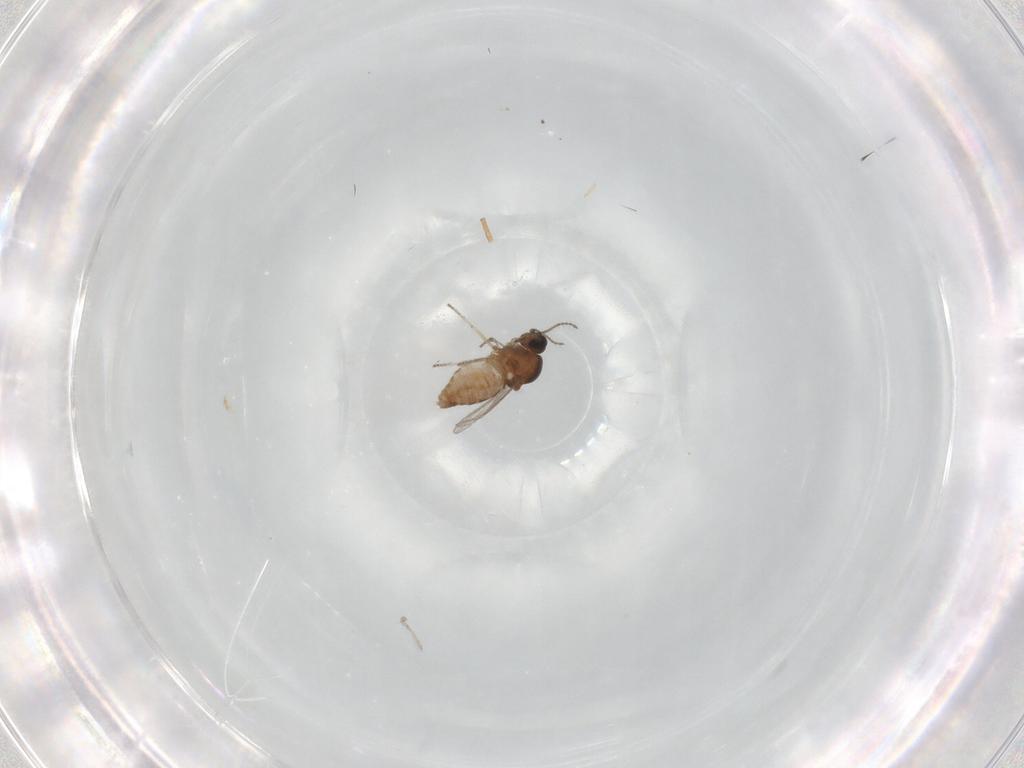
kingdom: Animalia
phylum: Arthropoda
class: Insecta
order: Diptera
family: Ceratopogonidae
